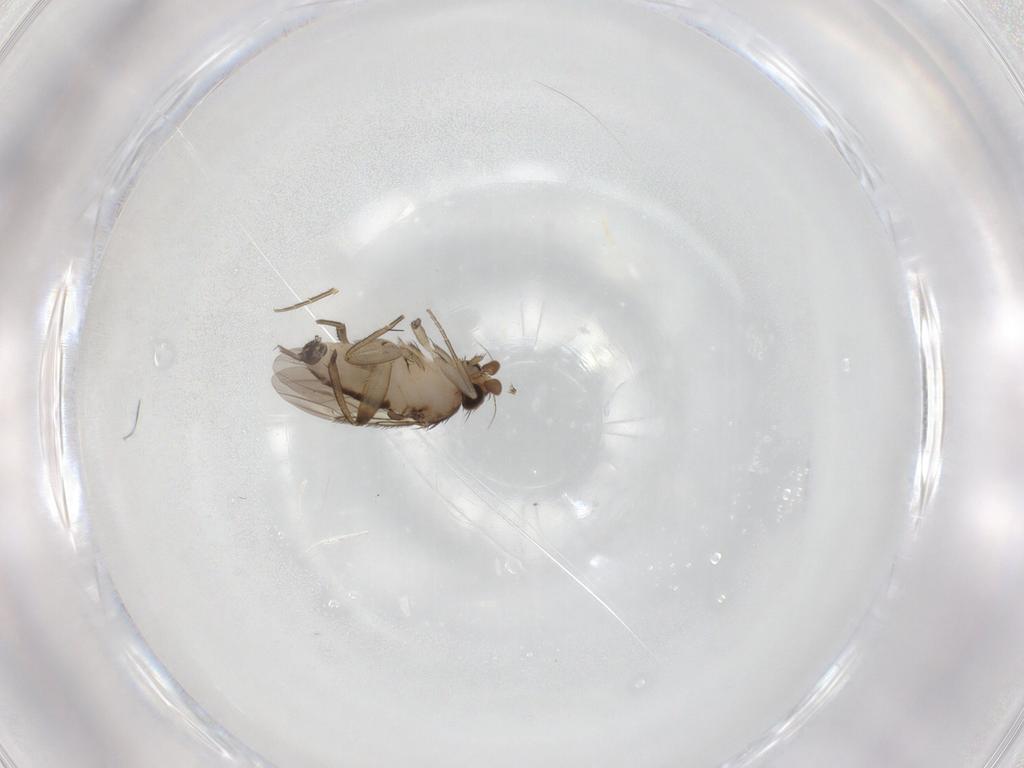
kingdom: Animalia
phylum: Arthropoda
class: Insecta
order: Diptera
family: Phoridae
